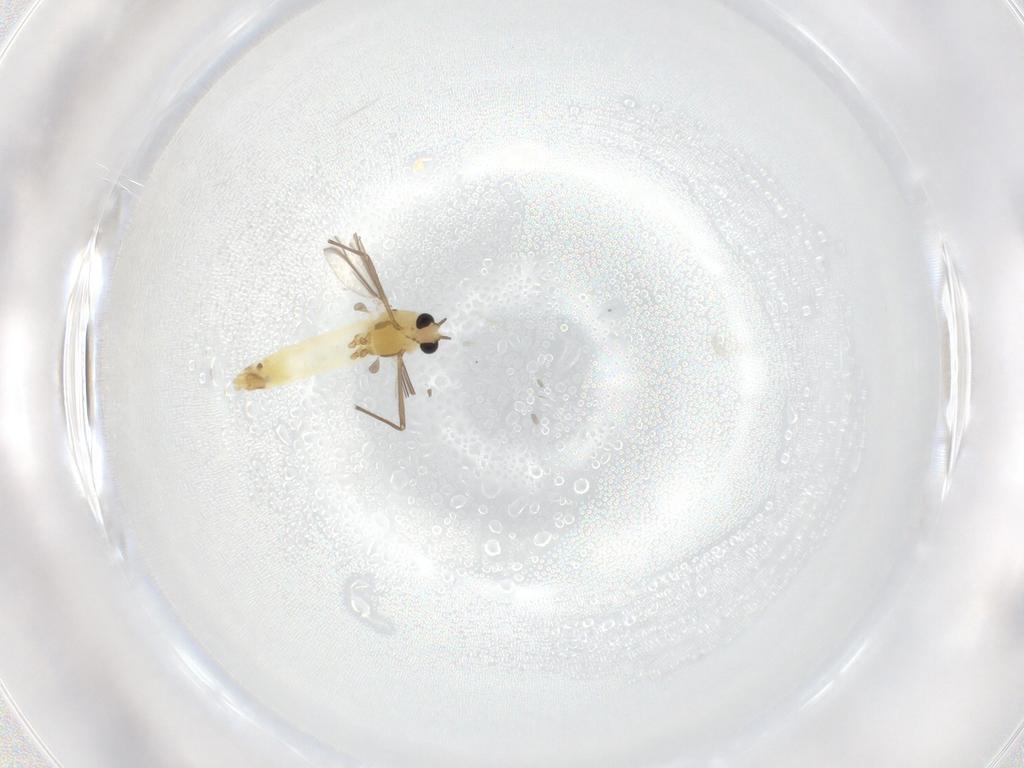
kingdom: Animalia
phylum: Arthropoda
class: Insecta
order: Diptera
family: Chironomidae
